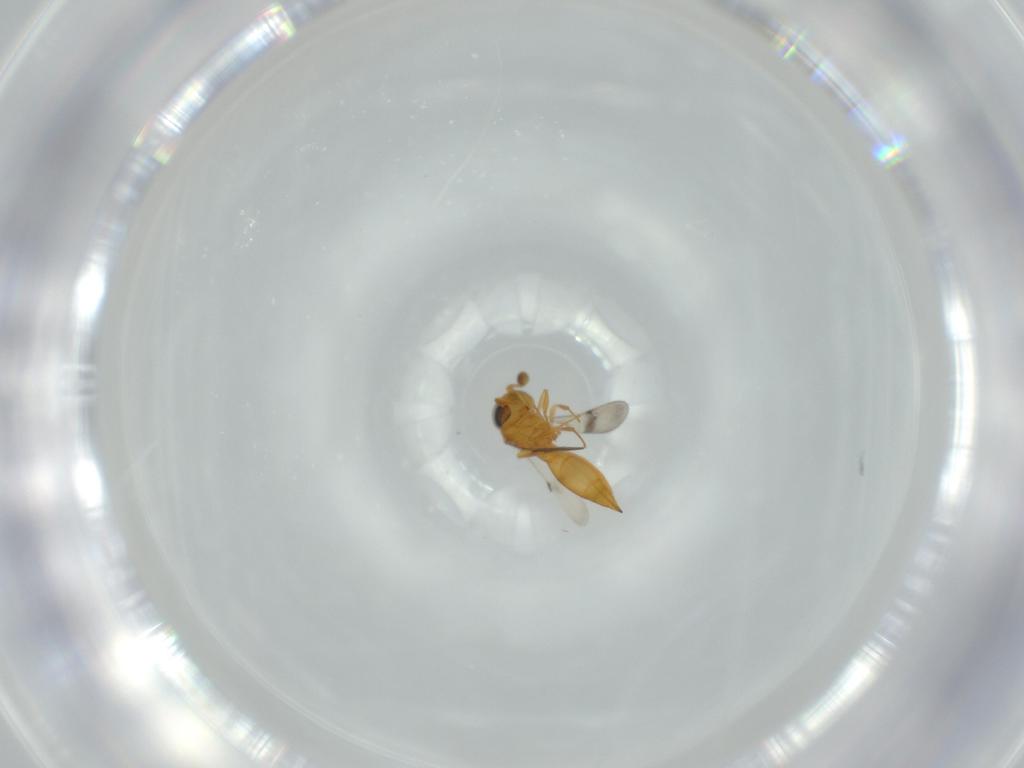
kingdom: Animalia
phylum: Arthropoda
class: Insecta
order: Hymenoptera
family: Scelionidae
